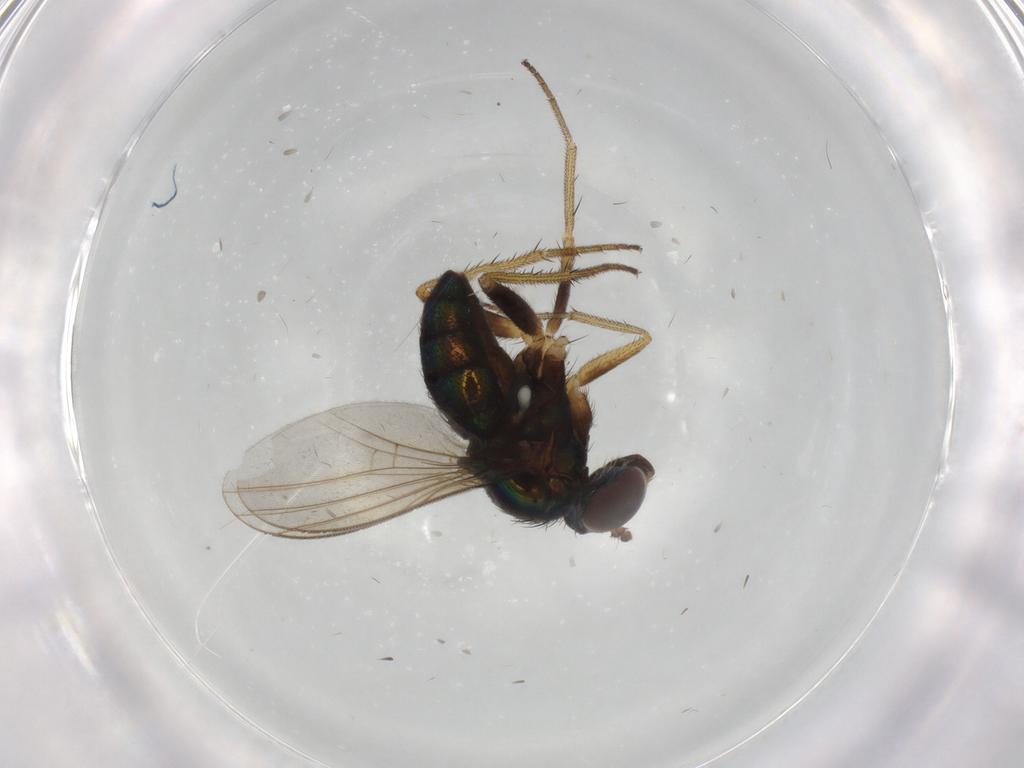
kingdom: Animalia
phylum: Arthropoda
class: Insecta
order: Diptera
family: Dolichopodidae
